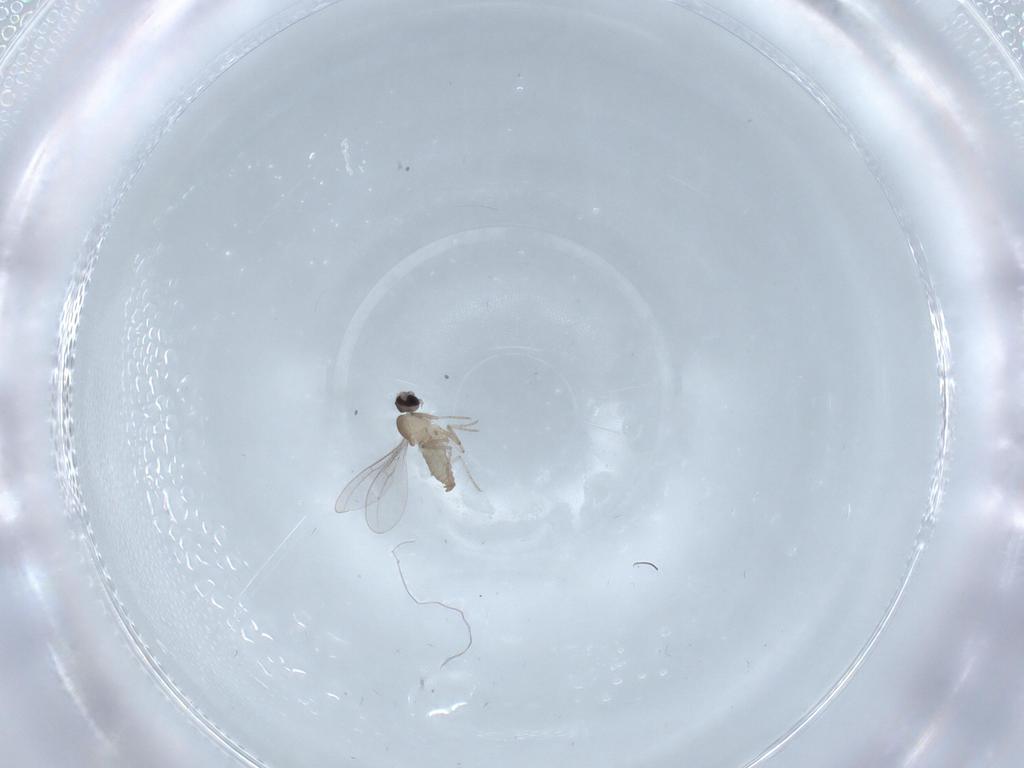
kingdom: Animalia
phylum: Arthropoda
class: Insecta
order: Diptera
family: Cecidomyiidae
